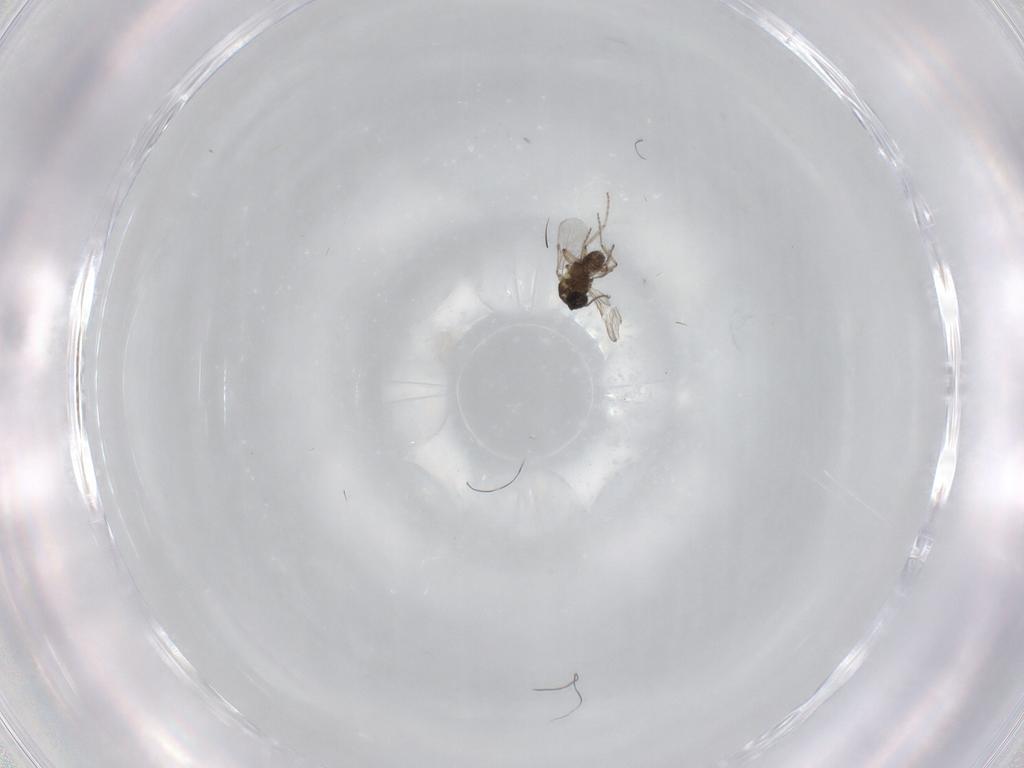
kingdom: Animalia
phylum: Arthropoda
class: Insecta
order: Diptera
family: Ceratopogonidae
